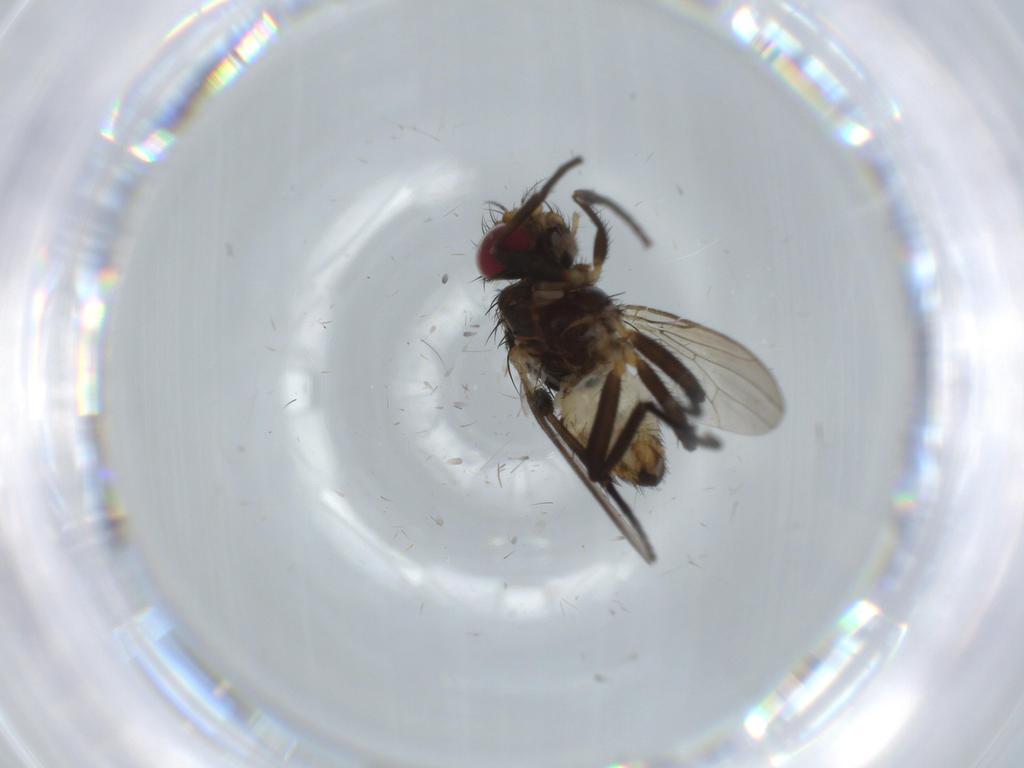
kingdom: Animalia
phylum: Arthropoda
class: Insecta
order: Diptera
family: Anthomyiidae
